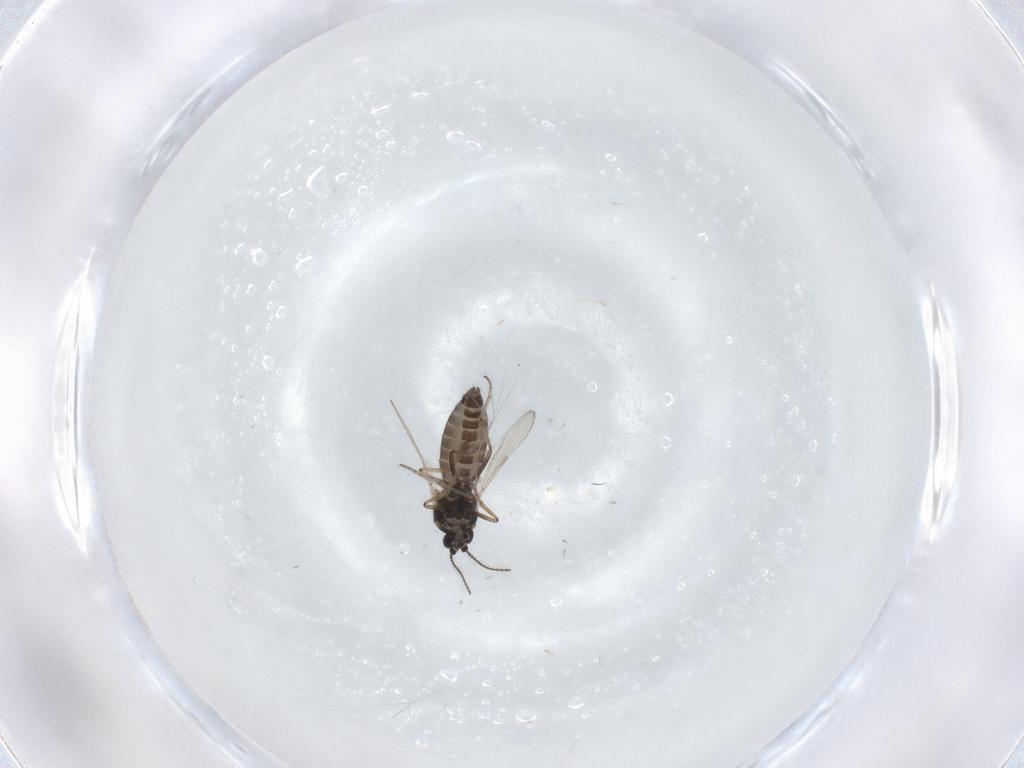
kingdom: Animalia
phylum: Arthropoda
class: Insecta
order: Diptera
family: Ceratopogonidae
